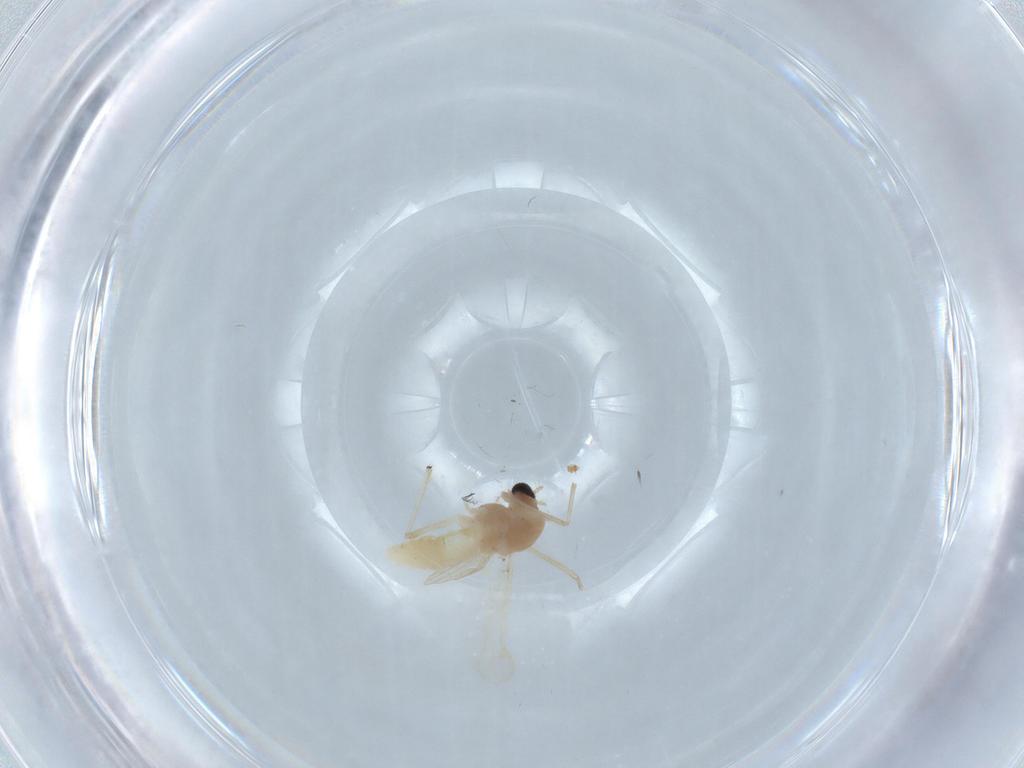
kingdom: Animalia
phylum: Arthropoda
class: Insecta
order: Diptera
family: Chironomidae
